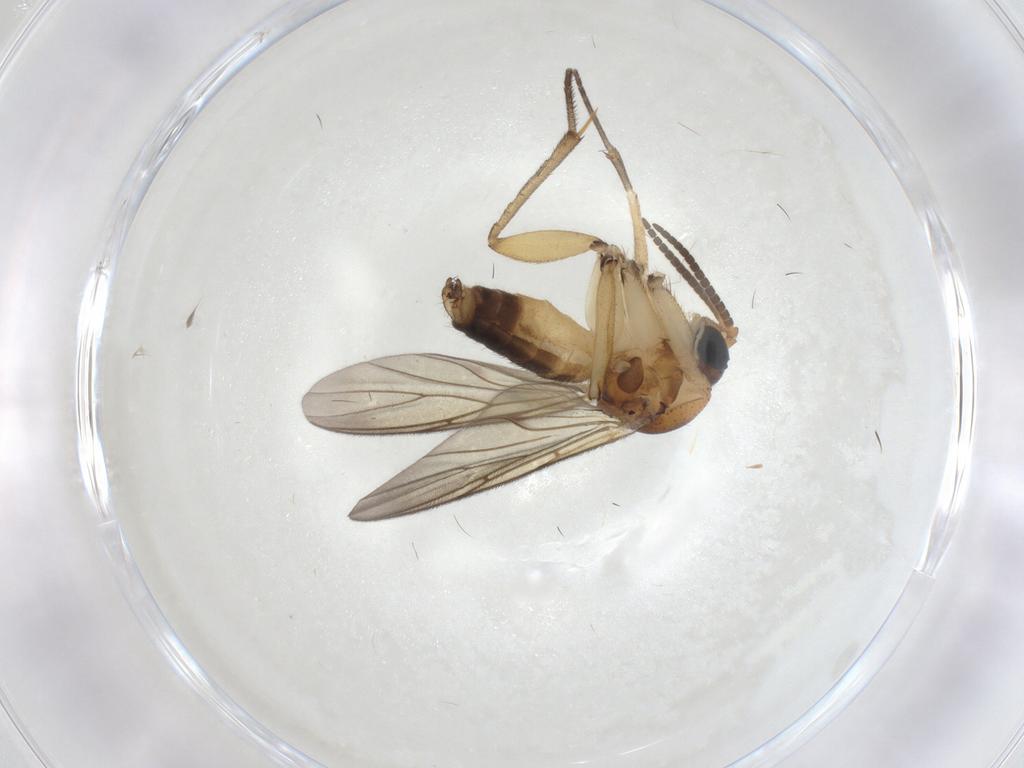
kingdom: Animalia
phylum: Arthropoda
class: Insecta
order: Diptera
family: Mycetophilidae
